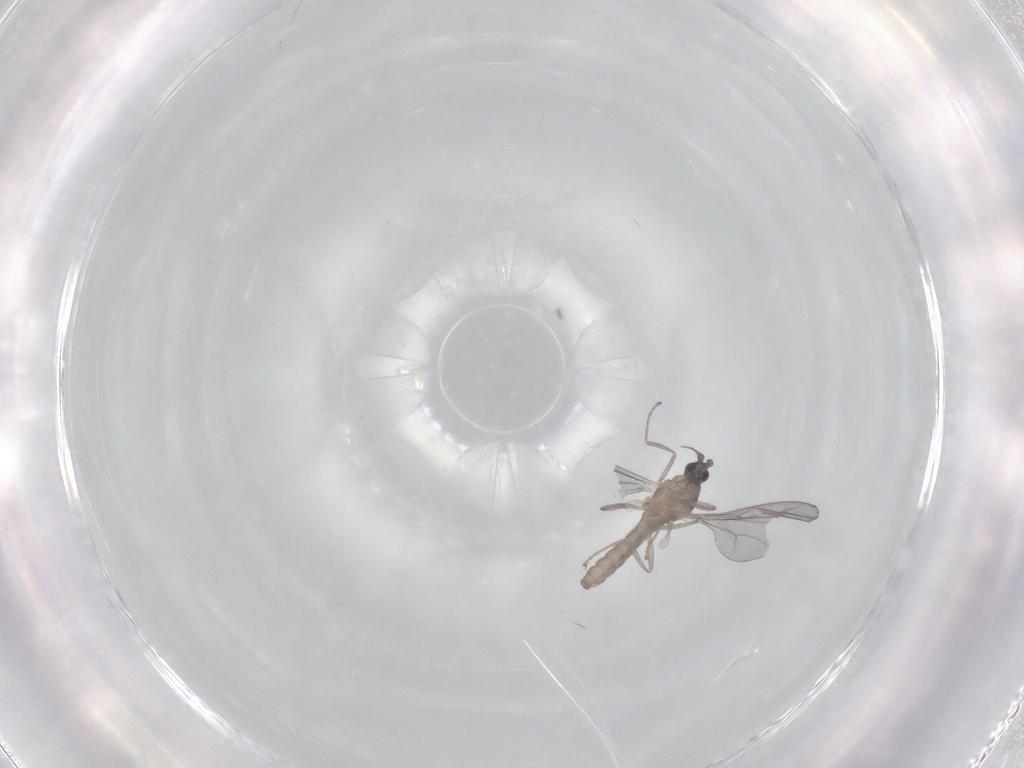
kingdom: Animalia
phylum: Arthropoda
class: Insecta
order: Diptera
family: Cecidomyiidae
